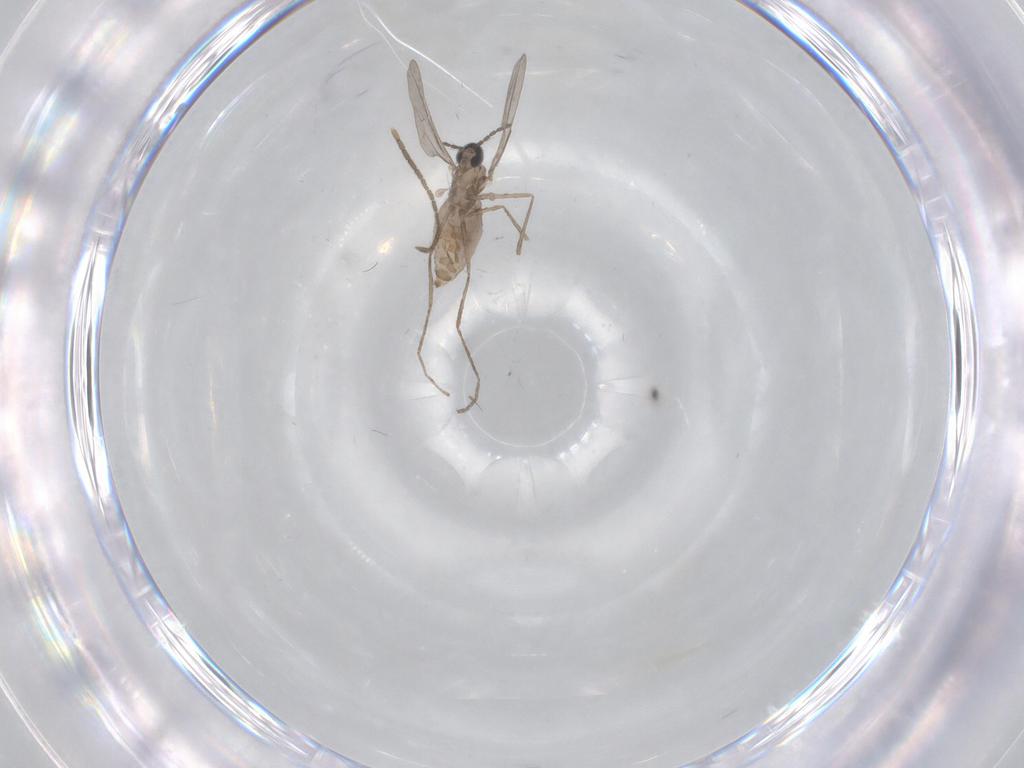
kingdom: Animalia
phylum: Arthropoda
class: Insecta
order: Diptera
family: Sciaridae
